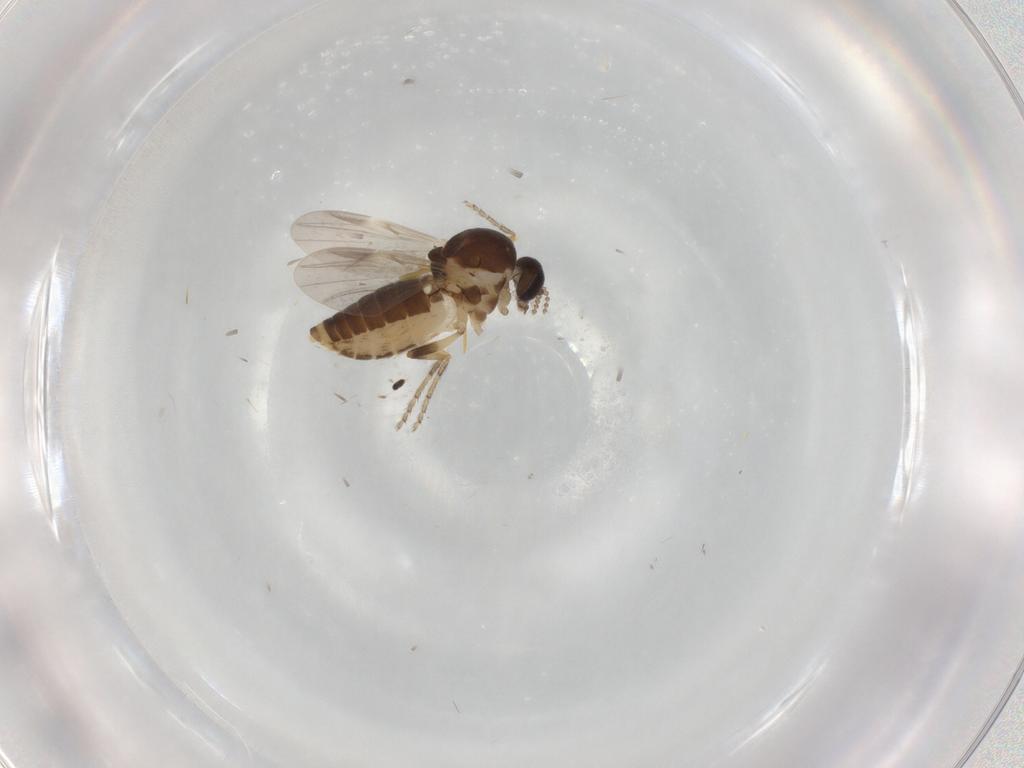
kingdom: Animalia
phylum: Arthropoda
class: Insecta
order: Diptera
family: Ceratopogonidae
